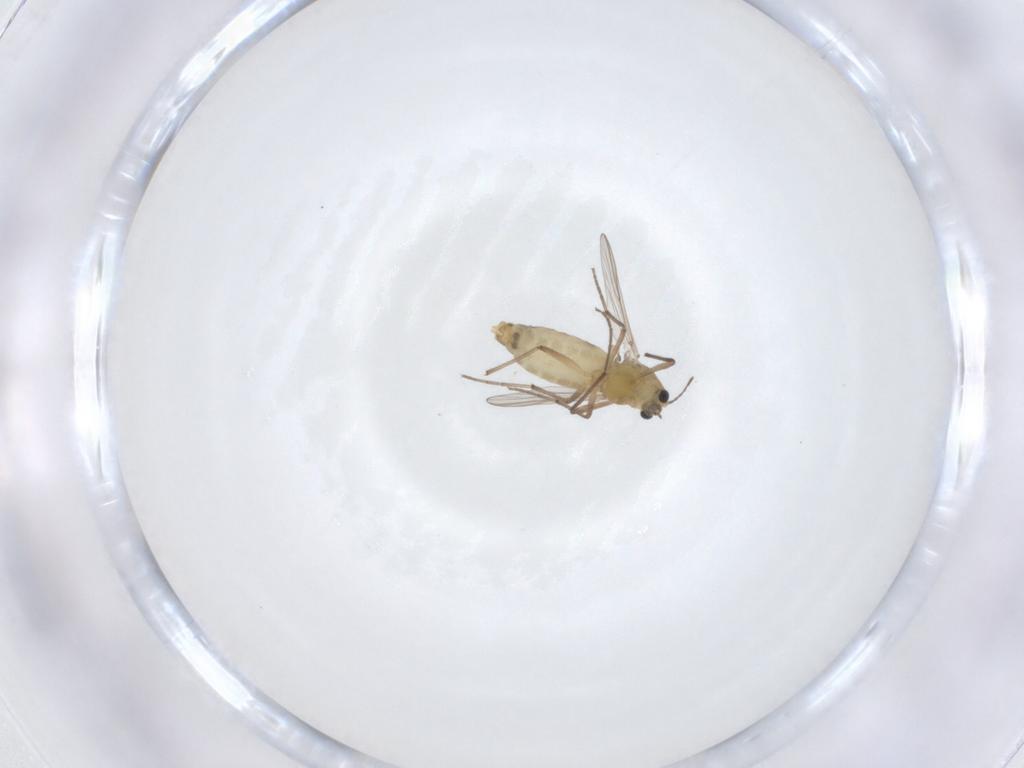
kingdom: Animalia
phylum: Arthropoda
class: Insecta
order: Diptera
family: Chironomidae
